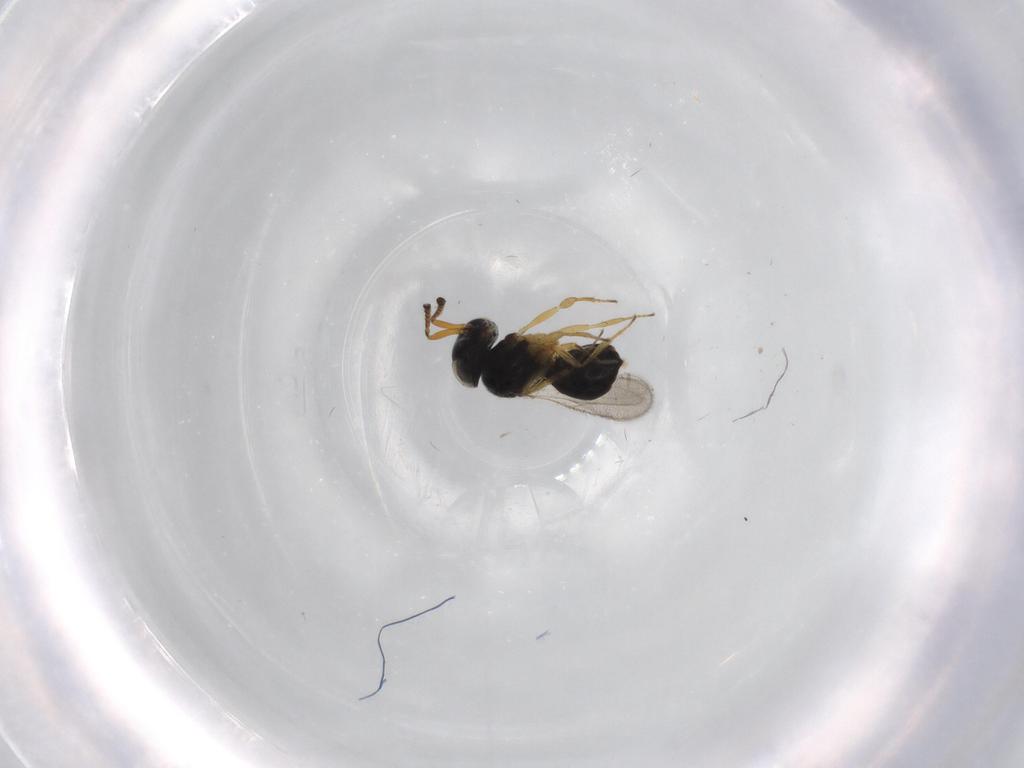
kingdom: Animalia
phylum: Arthropoda
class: Insecta
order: Hymenoptera
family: Scelionidae
